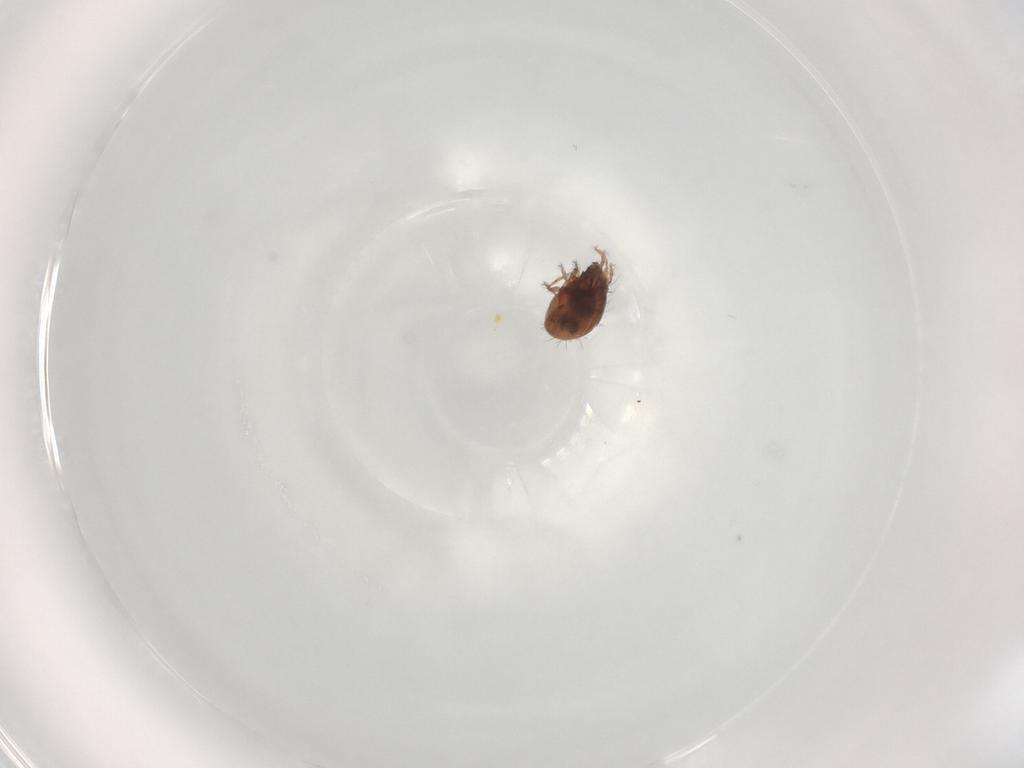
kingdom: Animalia
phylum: Arthropoda
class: Arachnida
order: Sarcoptiformes
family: Humerobatidae
